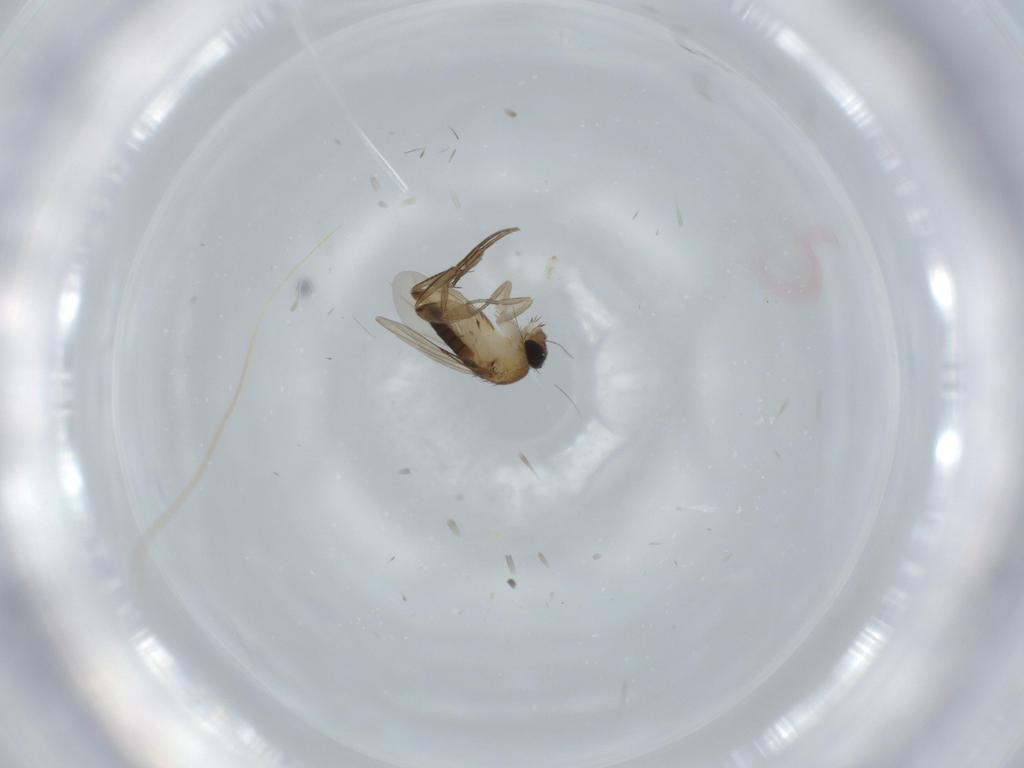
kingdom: Animalia
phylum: Arthropoda
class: Insecta
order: Diptera
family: Phoridae
